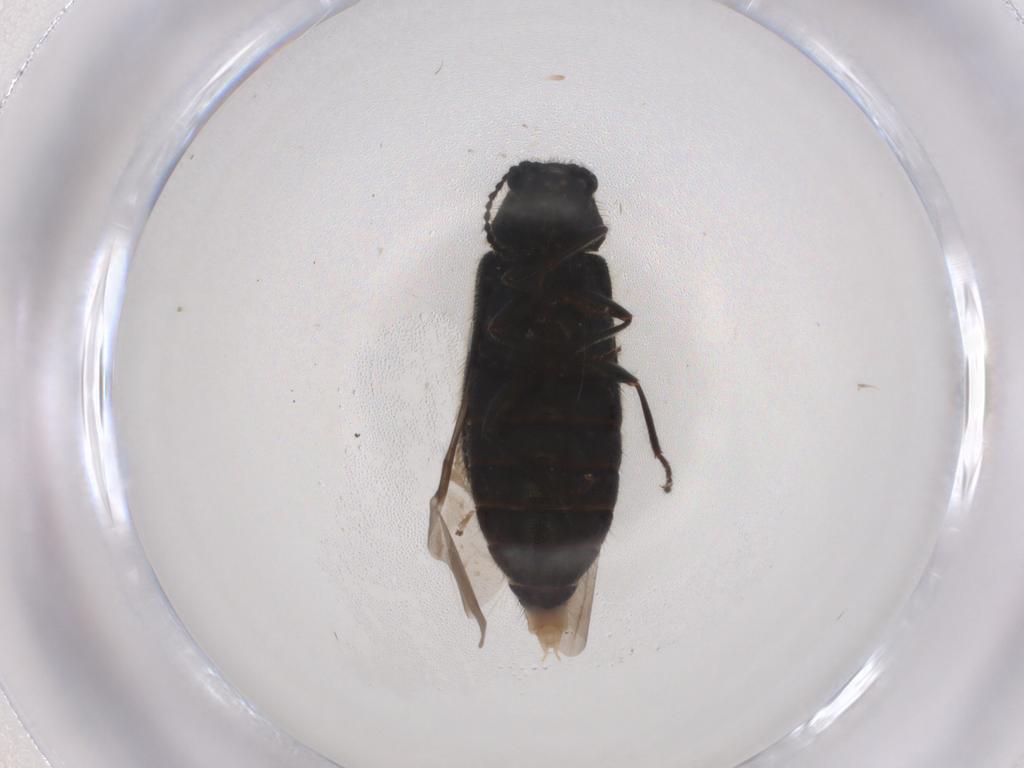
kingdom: Animalia
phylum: Arthropoda
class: Insecta
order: Coleoptera
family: Melyridae
